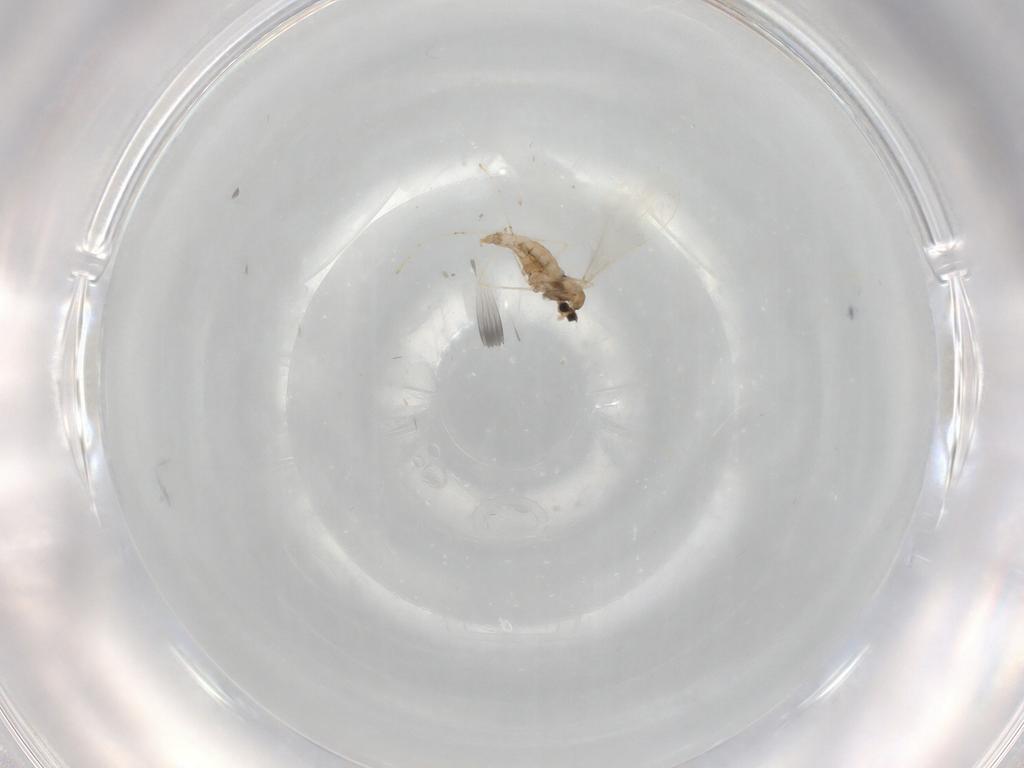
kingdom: Animalia
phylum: Arthropoda
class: Insecta
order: Diptera
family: Cecidomyiidae
